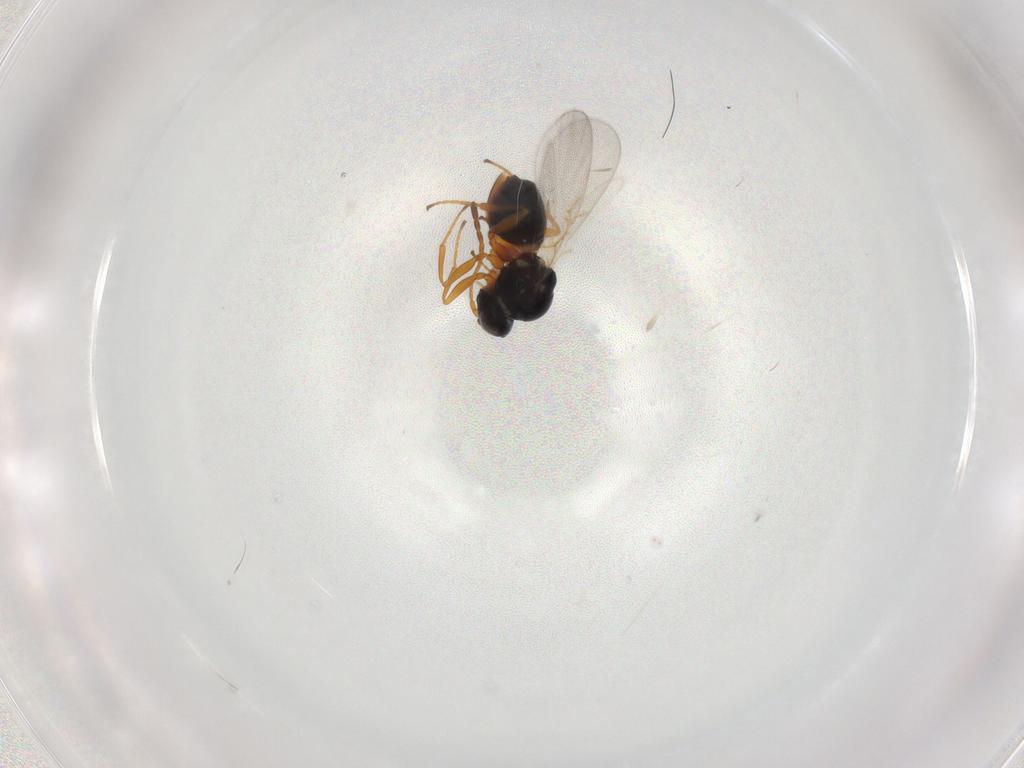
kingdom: Animalia
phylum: Arthropoda
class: Insecta
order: Hymenoptera
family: Figitidae
